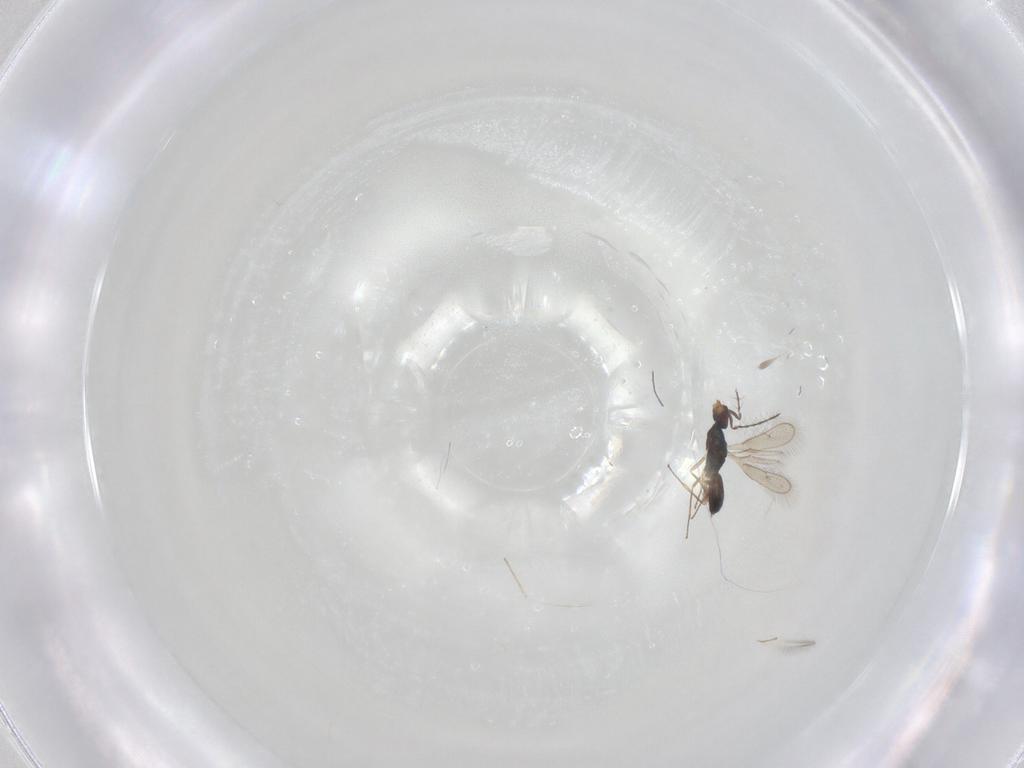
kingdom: Animalia
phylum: Arthropoda
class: Insecta
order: Hymenoptera
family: Pteromalidae
